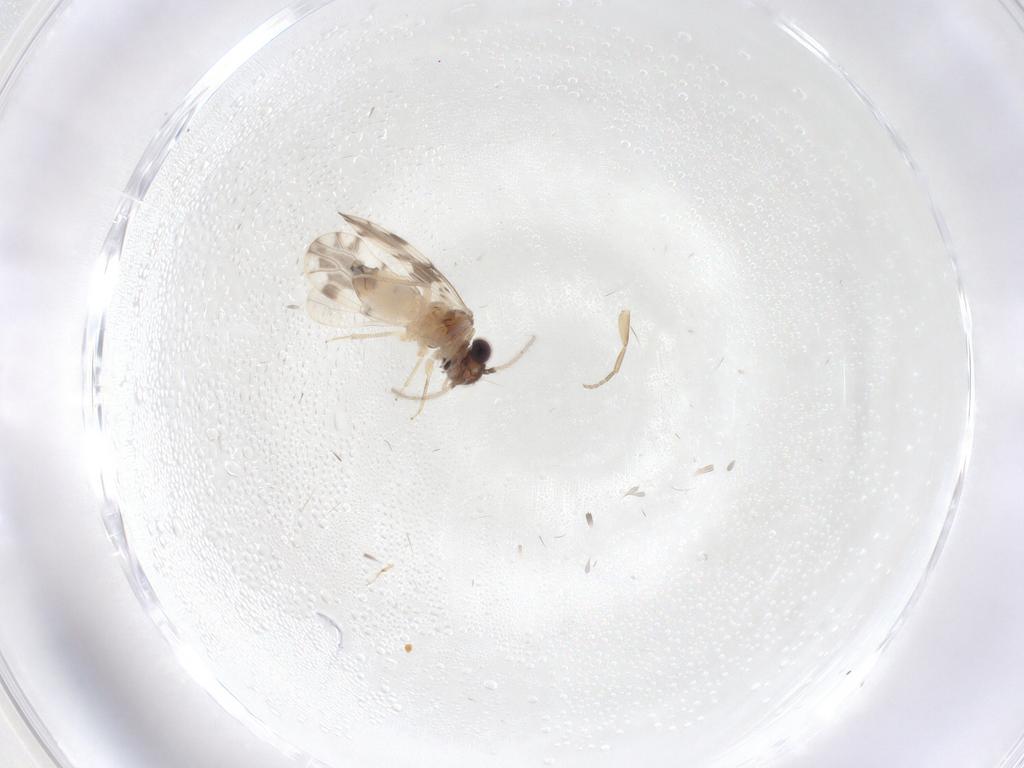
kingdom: Animalia
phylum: Arthropoda
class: Insecta
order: Psocodea
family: Ectopsocidae
